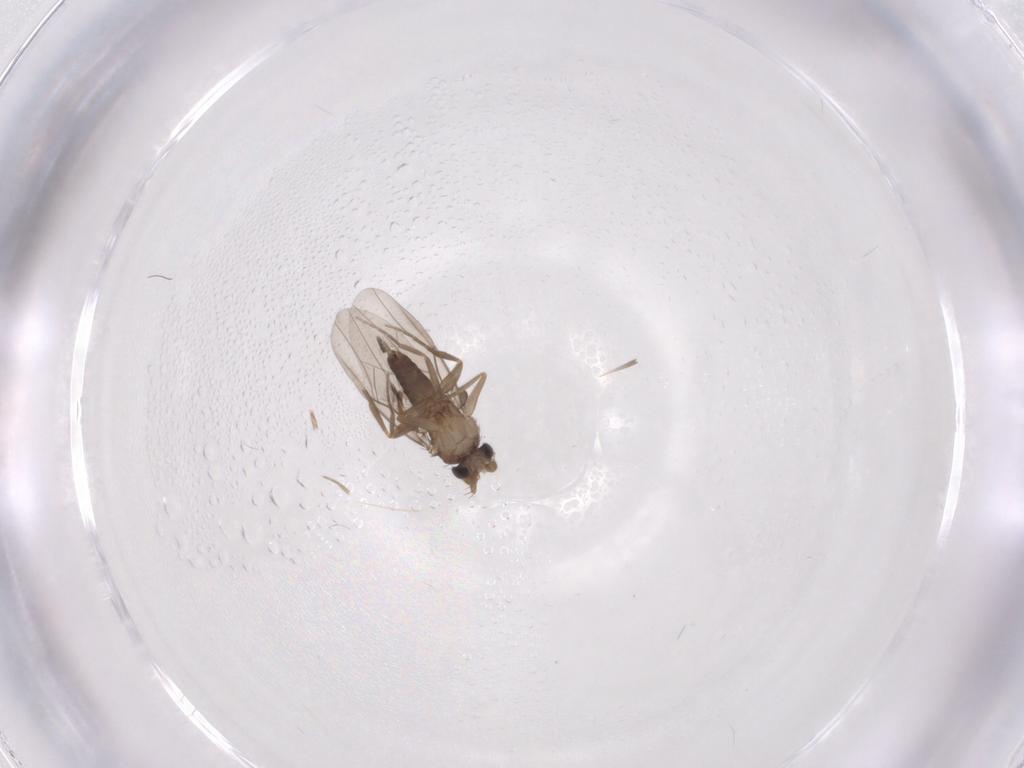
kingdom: Animalia
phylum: Arthropoda
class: Insecta
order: Diptera
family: Phoridae
